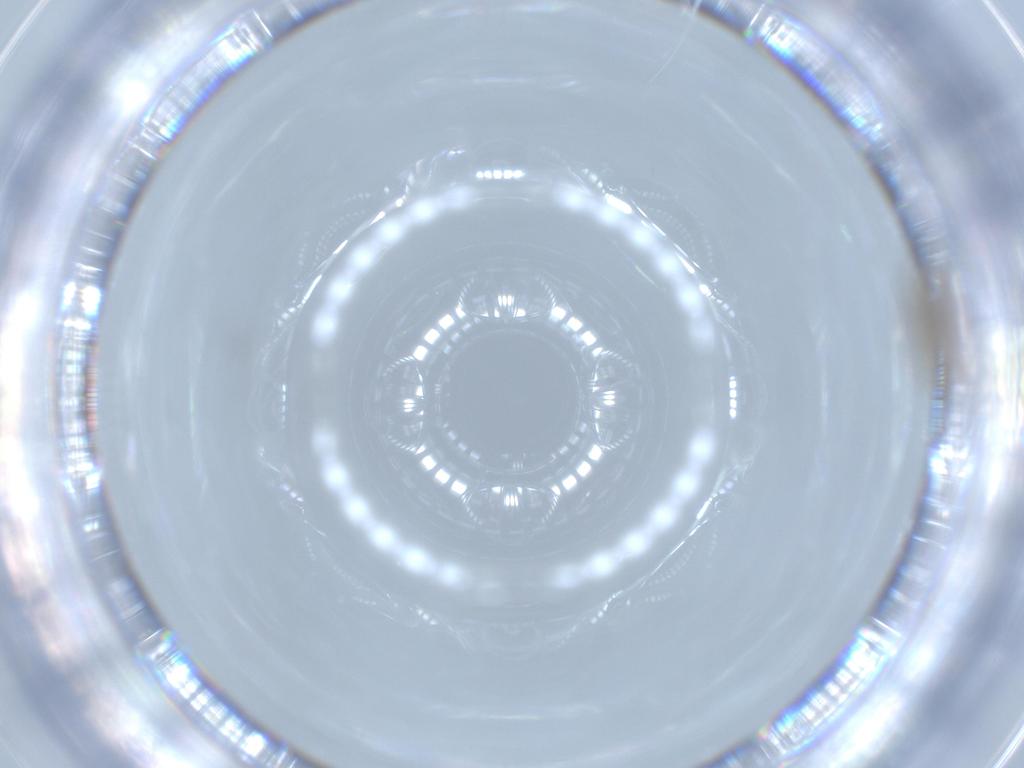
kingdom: Animalia
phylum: Arthropoda
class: Insecta
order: Diptera
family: Cecidomyiidae
